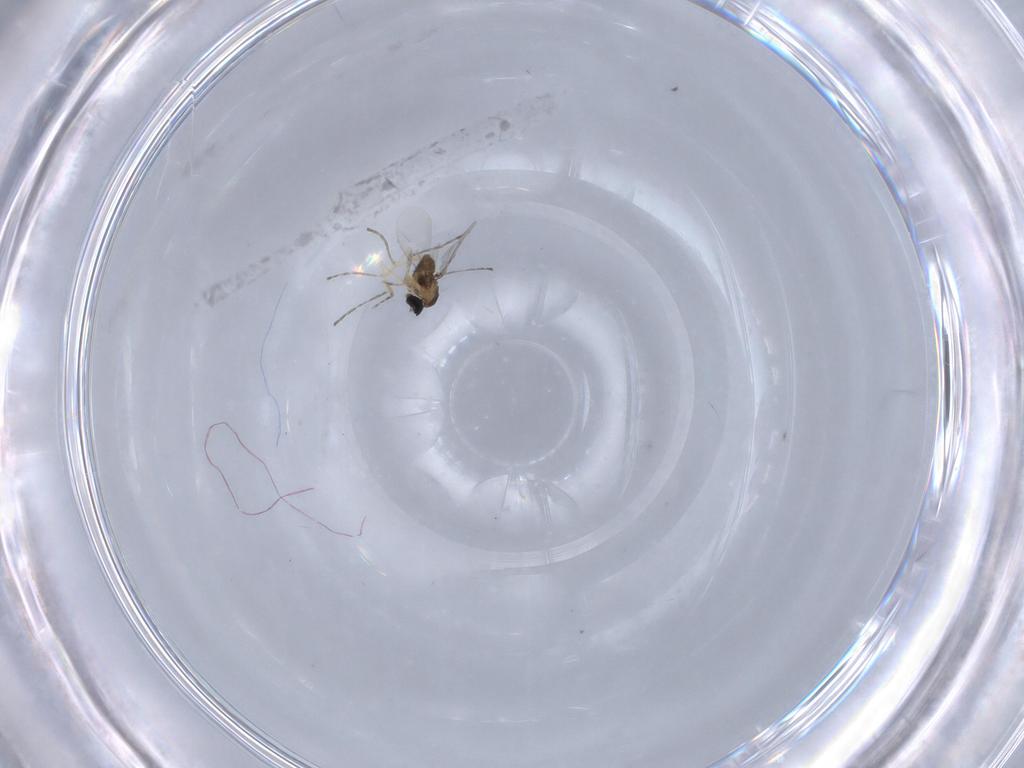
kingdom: Animalia
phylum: Arthropoda
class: Insecta
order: Diptera
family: Cecidomyiidae
